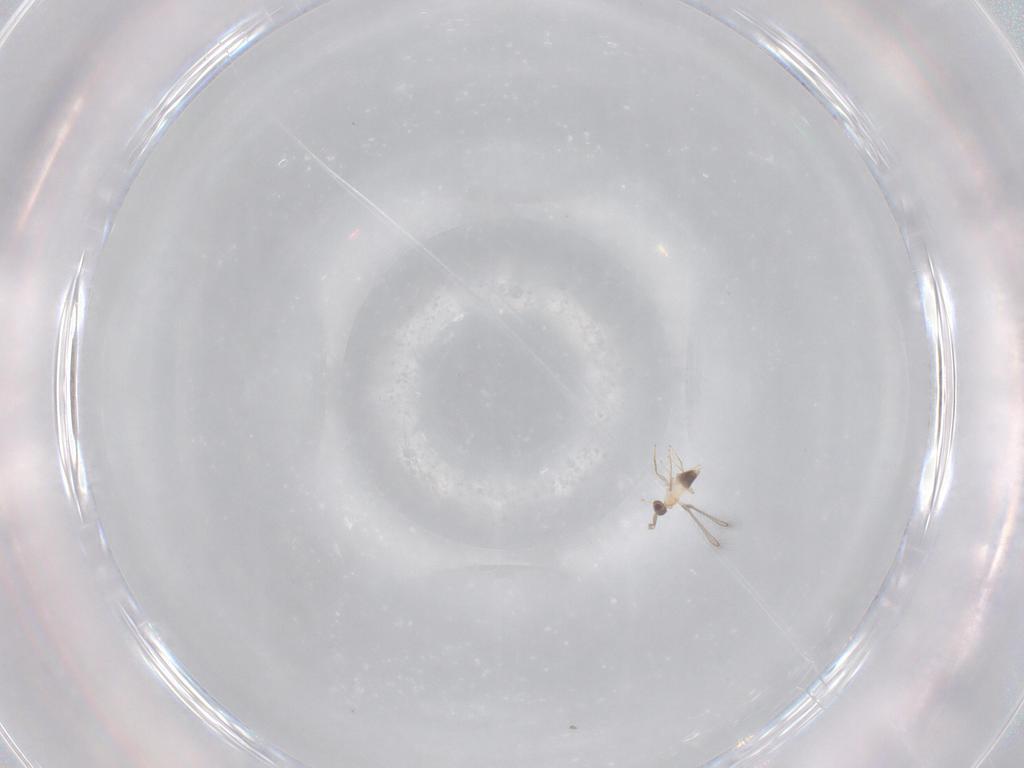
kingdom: Animalia
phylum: Arthropoda
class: Insecta
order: Hymenoptera
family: Mymaridae
